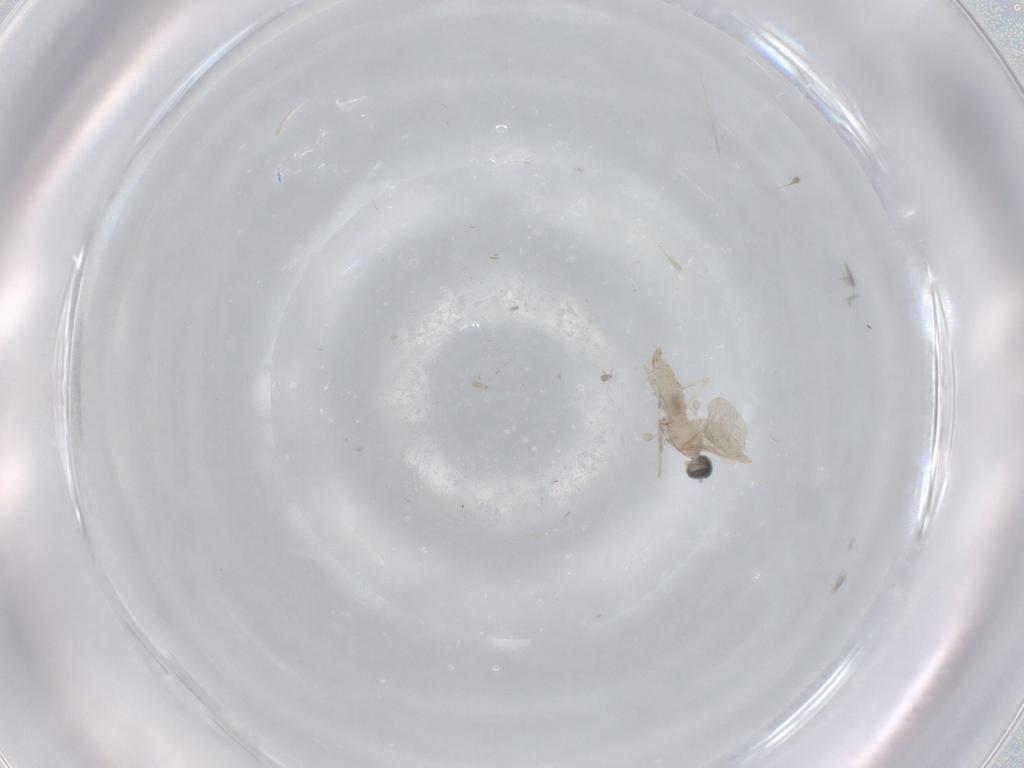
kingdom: Animalia
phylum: Arthropoda
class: Insecta
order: Diptera
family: Cecidomyiidae
